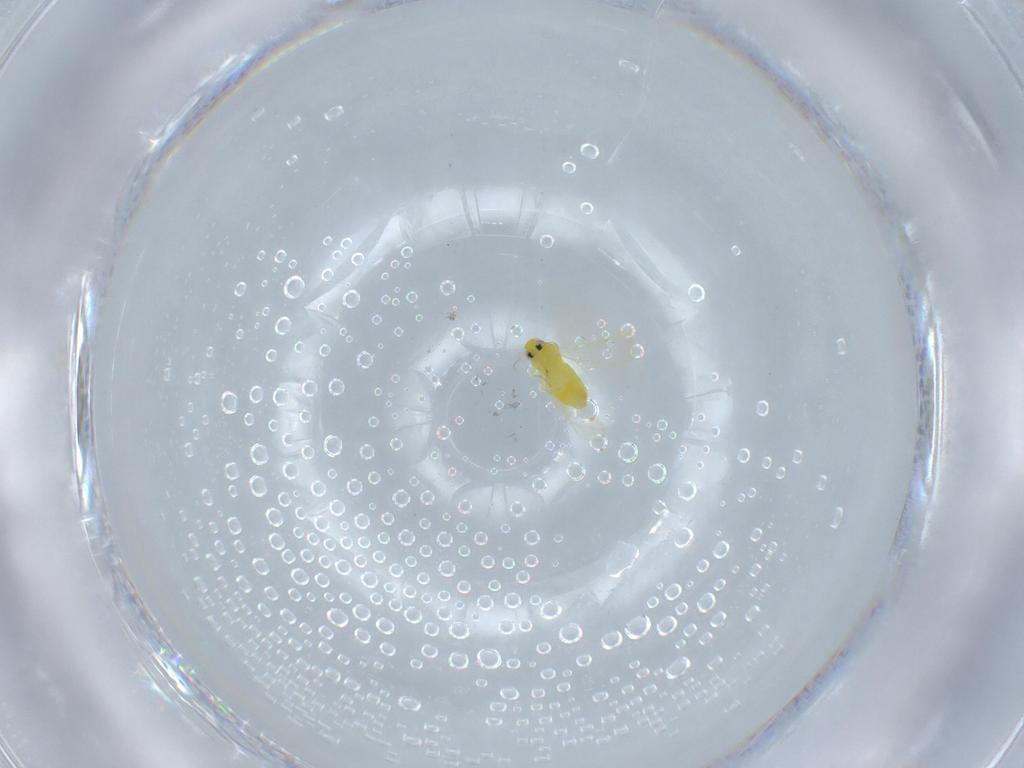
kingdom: Animalia
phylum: Arthropoda
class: Insecta
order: Hemiptera
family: Aleyrodidae
